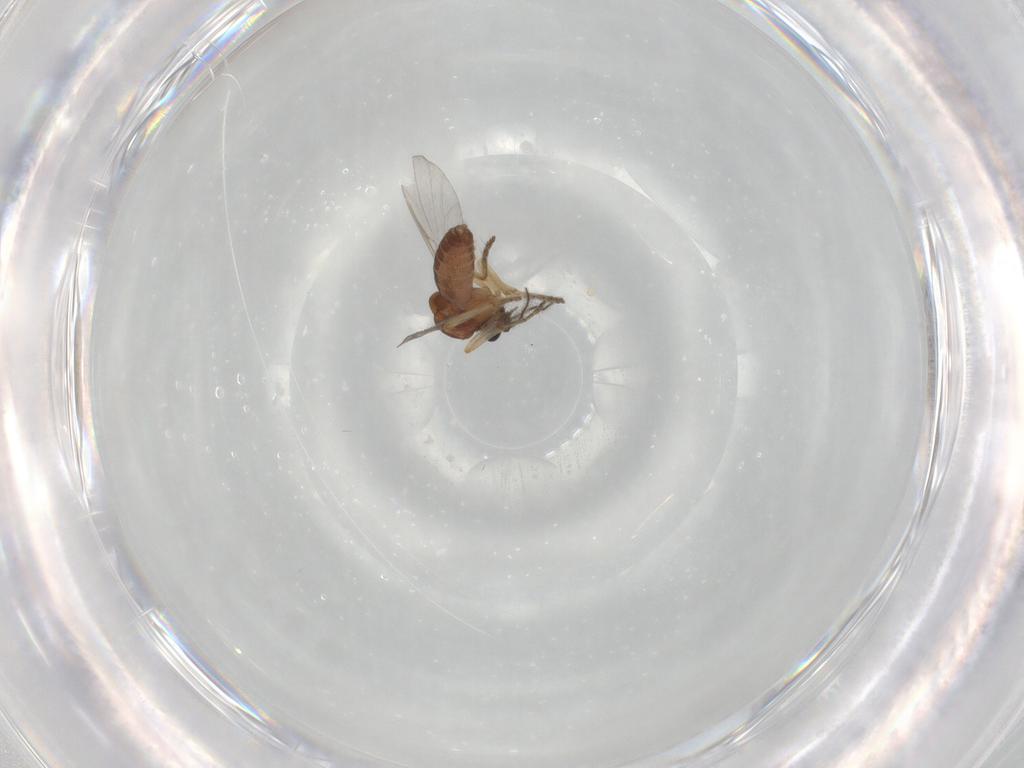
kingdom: Animalia
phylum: Arthropoda
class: Insecta
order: Diptera
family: Ceratopogonidae
